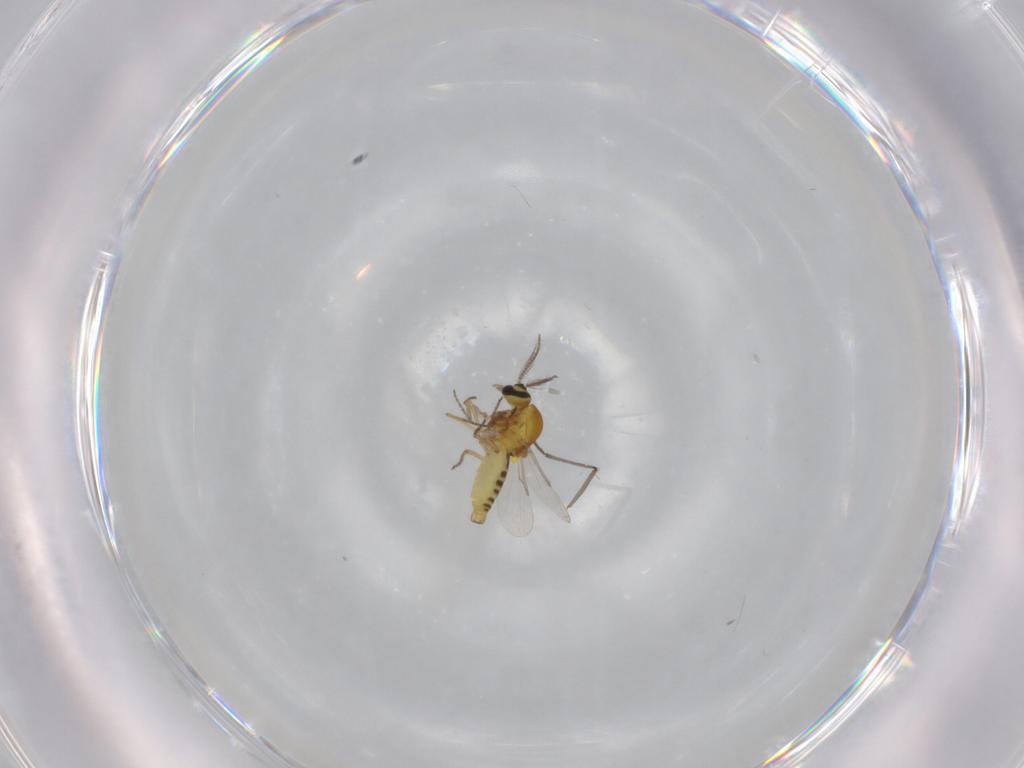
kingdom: Animalia
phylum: Arthropoda
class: Insecta
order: Diptera
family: Sciaridae
